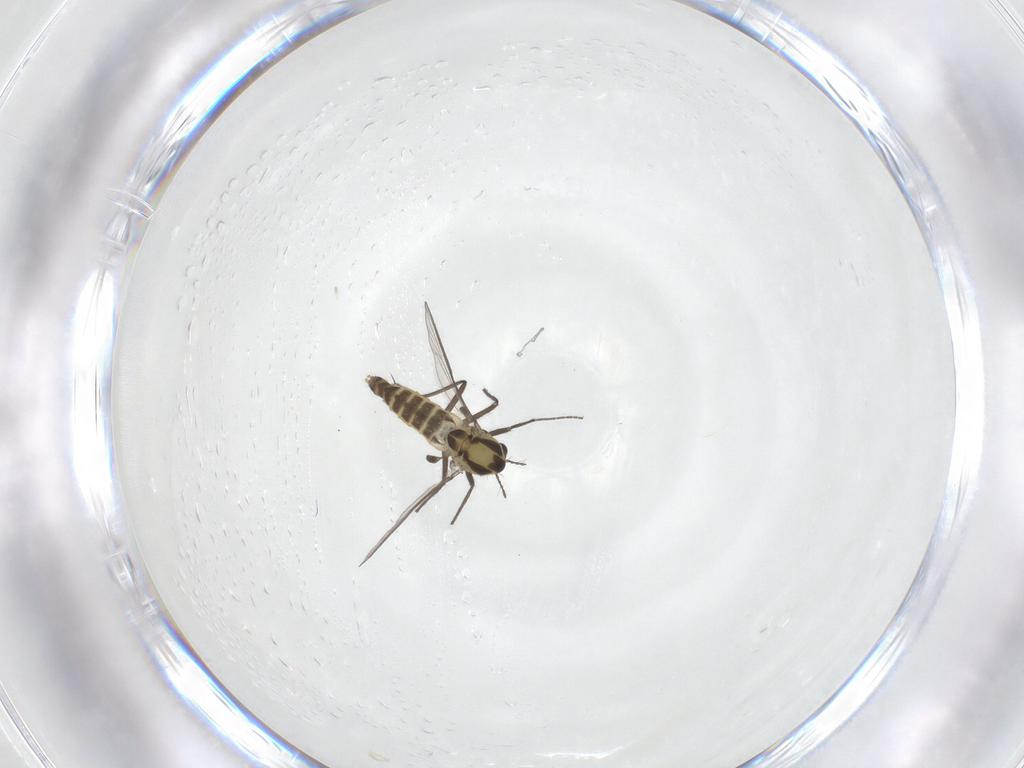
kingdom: Animalia
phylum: Arthropoda
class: Insecta
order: Diptera
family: Chironomidae
